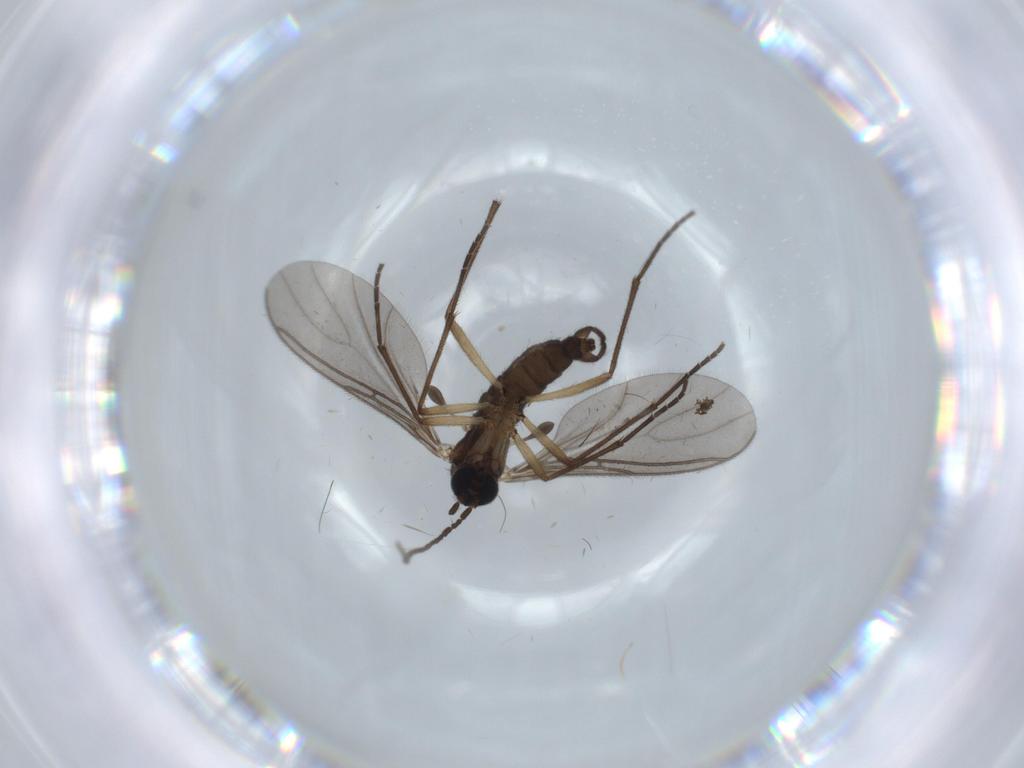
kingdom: Animalia
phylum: Arthropoda
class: Insecta
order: Diptera
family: Sciaridae
